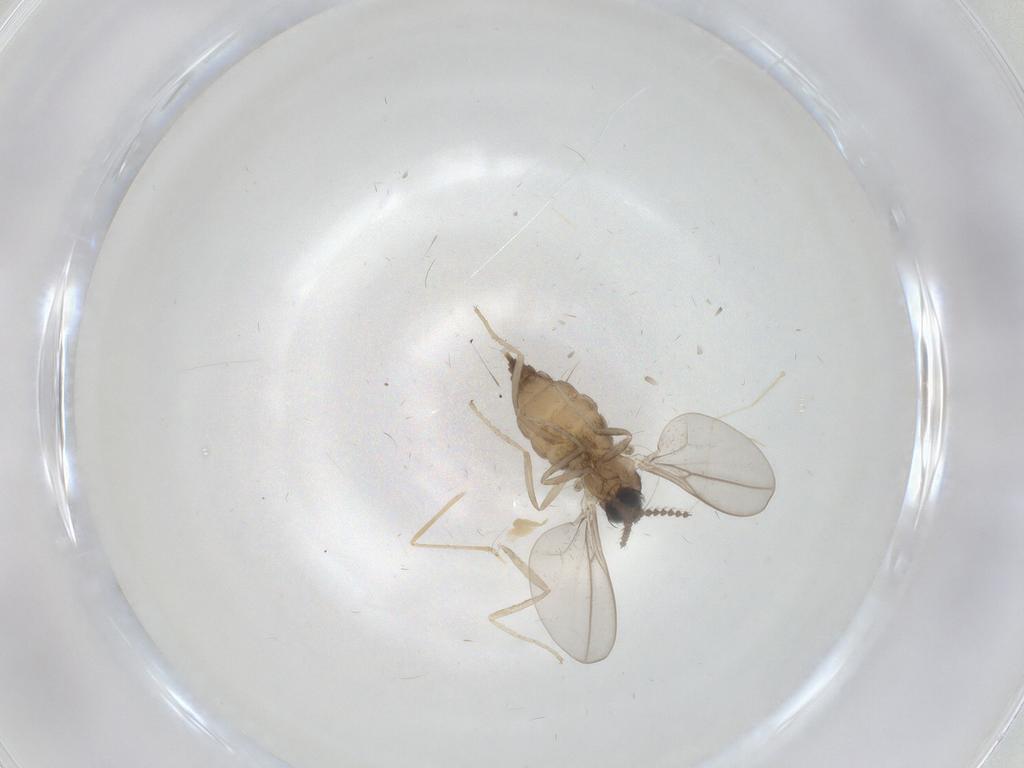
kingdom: Animalia
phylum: Arthropoda
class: Insecta
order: Diptera
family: Cecidomyiidae
